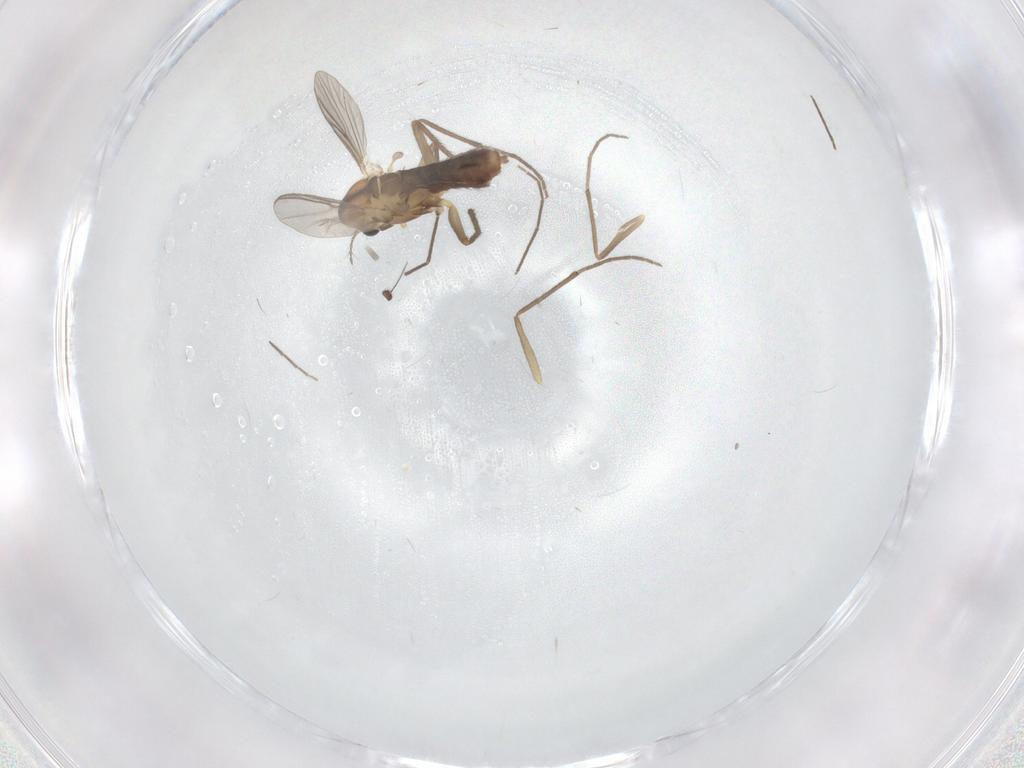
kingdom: Animalia
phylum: Arthropoda
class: Insecta
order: Diptera
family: Chironomidae
